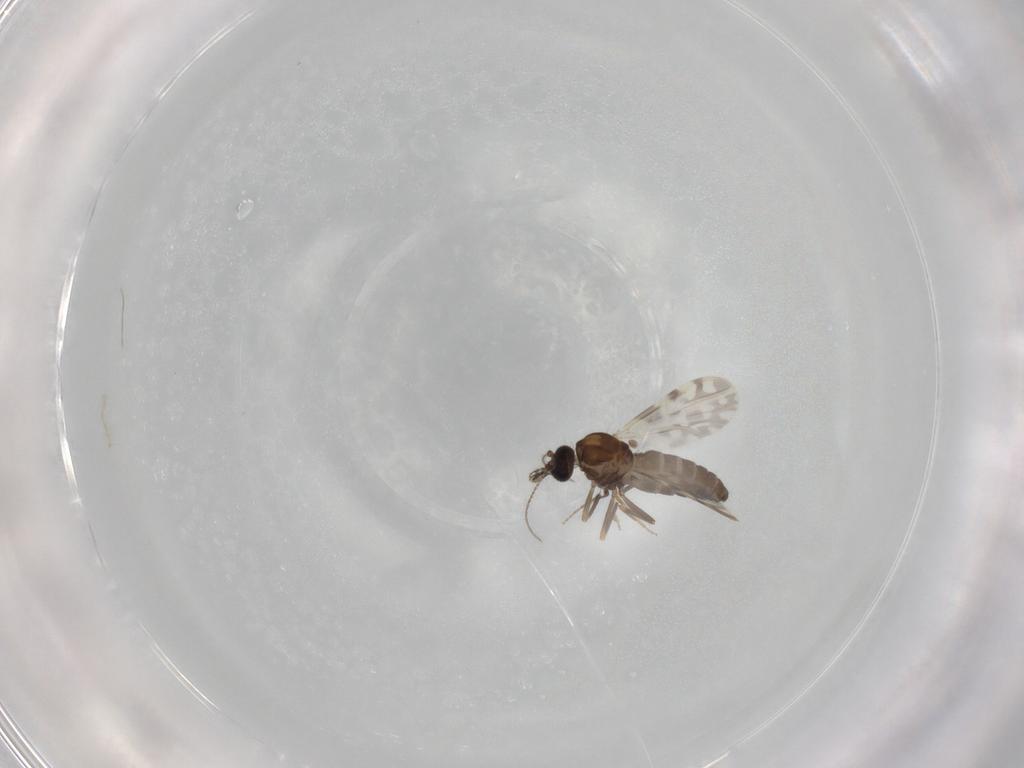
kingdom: Animalia
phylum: Arthropoda
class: Insecta
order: Diptera
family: Ceratopogonidae
